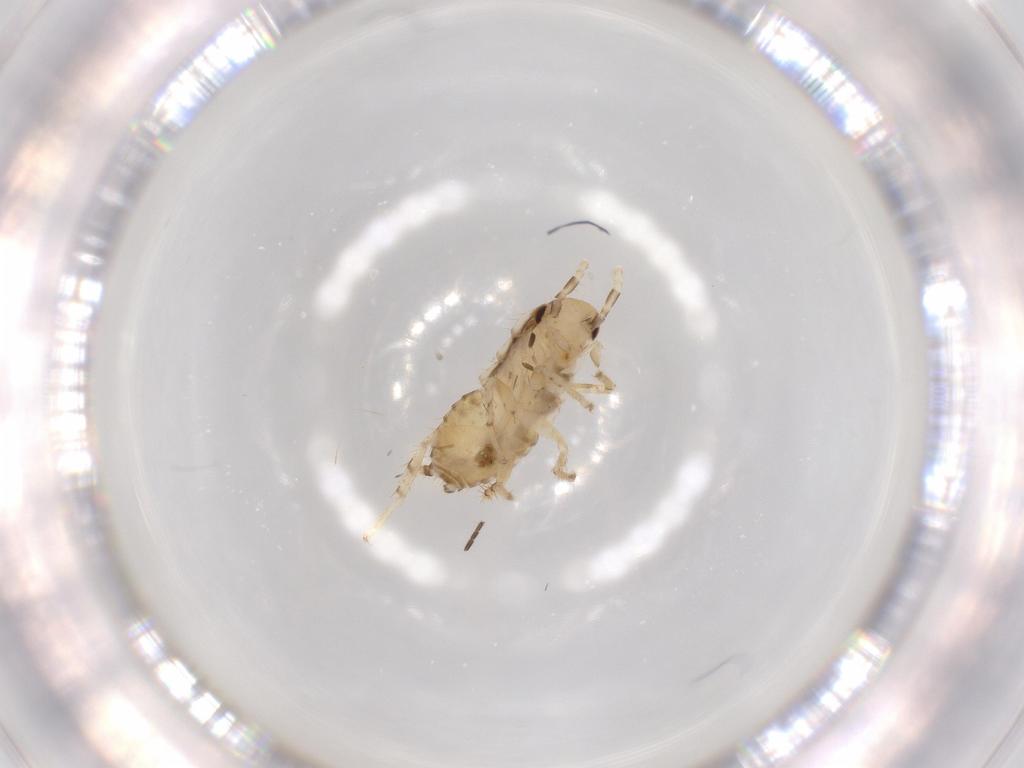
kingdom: Animalia
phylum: Arthropoda
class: Insecta
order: Blattodea
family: Ectobiidae
